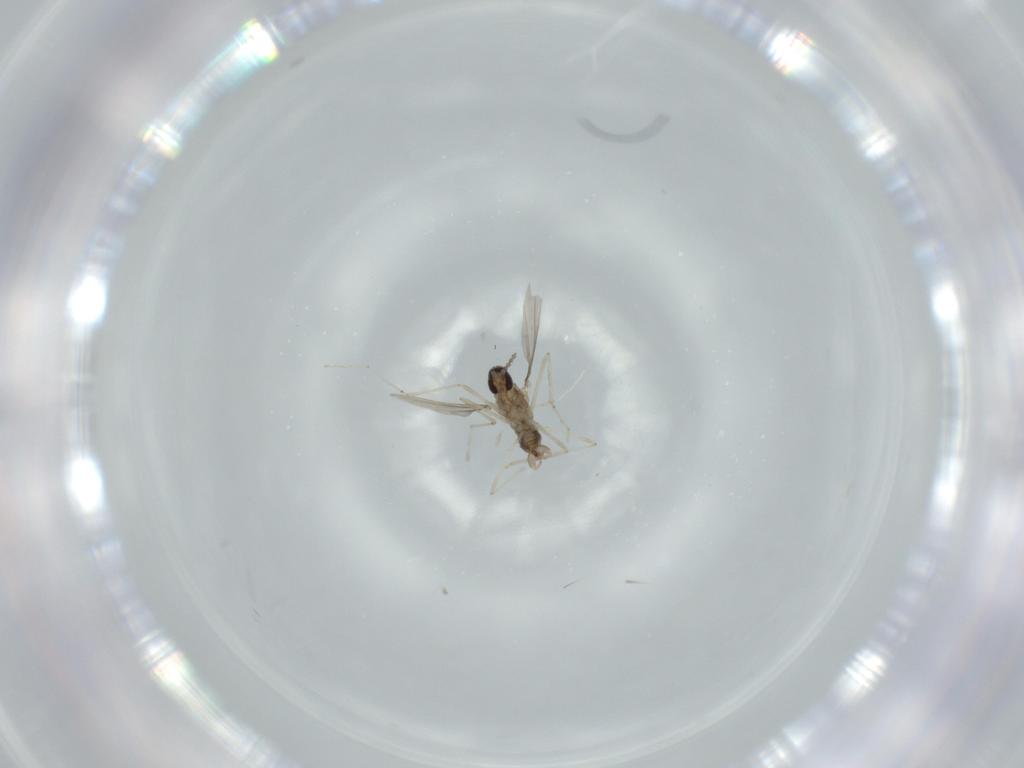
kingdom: Animalia
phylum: Arthropoda
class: Insecta
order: Diptera
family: Cecidomyiidae
